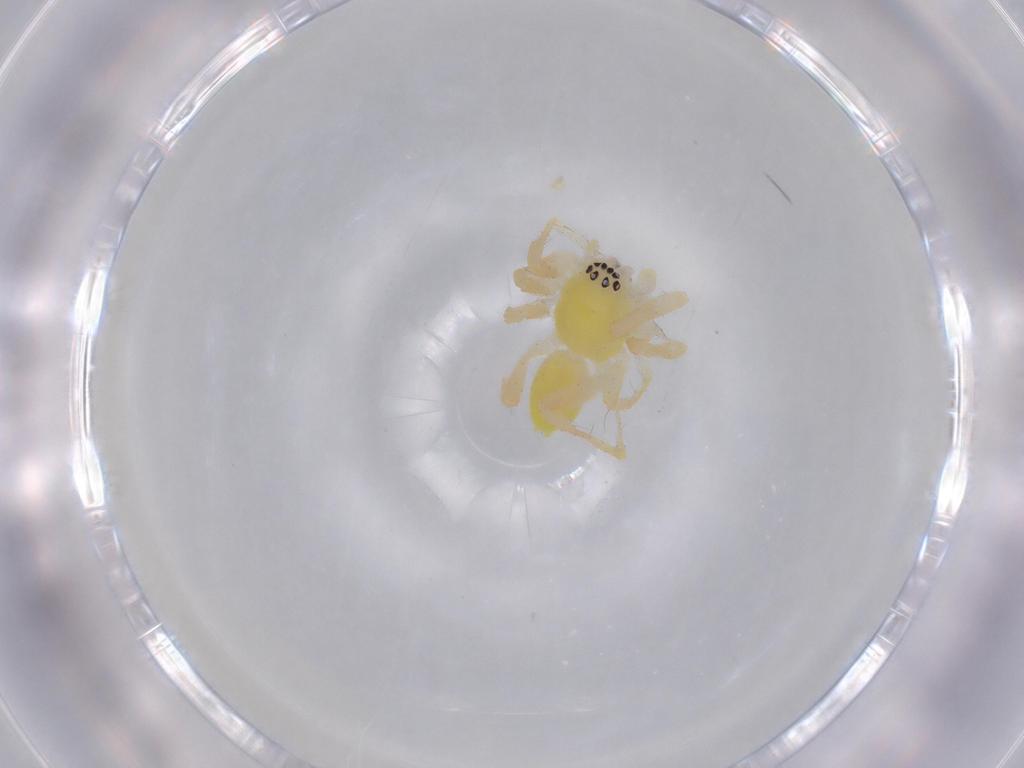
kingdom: Animalia
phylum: Arthropoda
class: Arachnida
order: Araneae
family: Anyphaenidae
